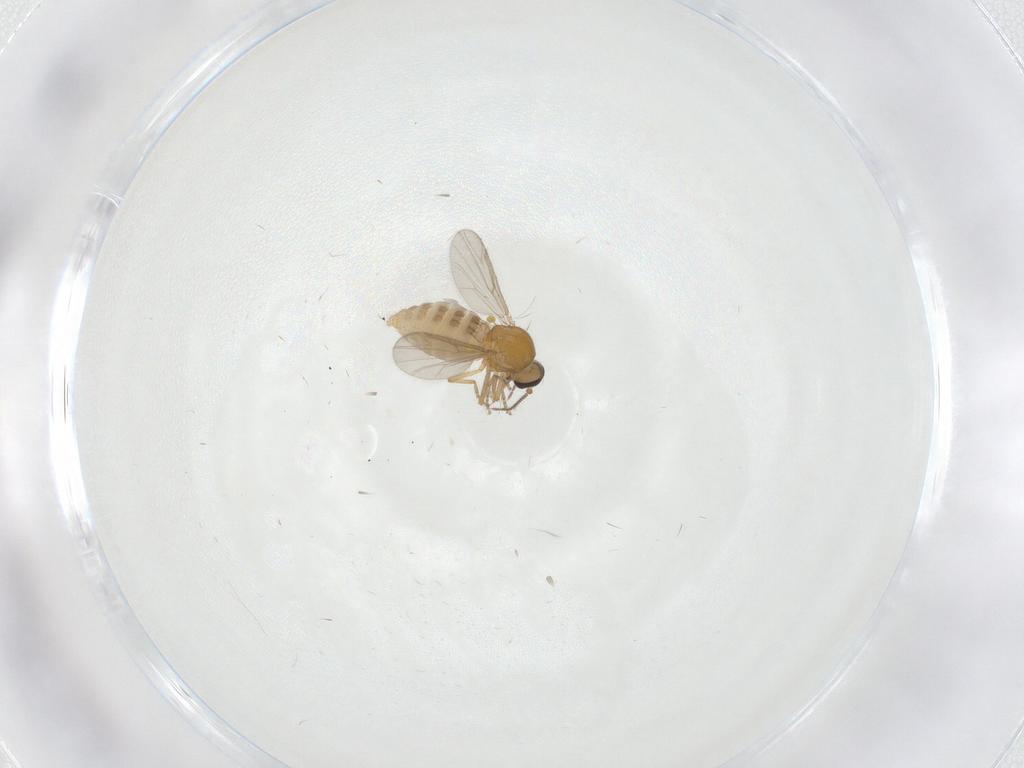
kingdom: Animalia
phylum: Arthropoda
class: Insecta
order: Diptera
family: Ceratopogonidae
